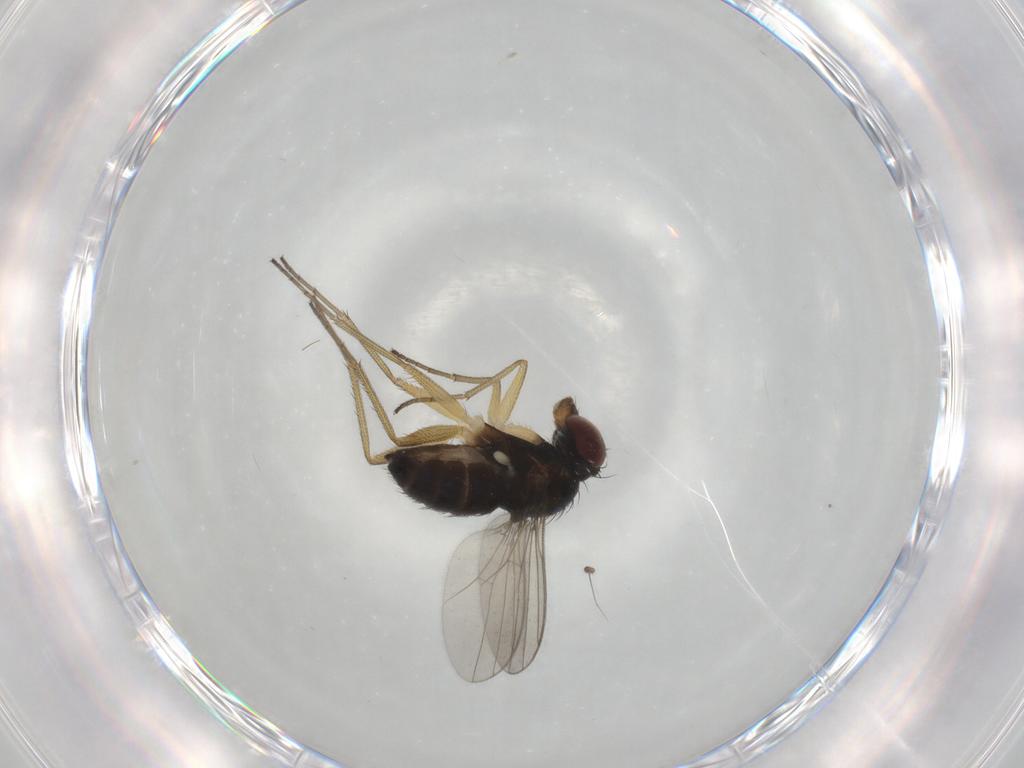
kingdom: Animalia
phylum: Arthropoda
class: Insecta
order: Diptera
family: Dolichopodidae
